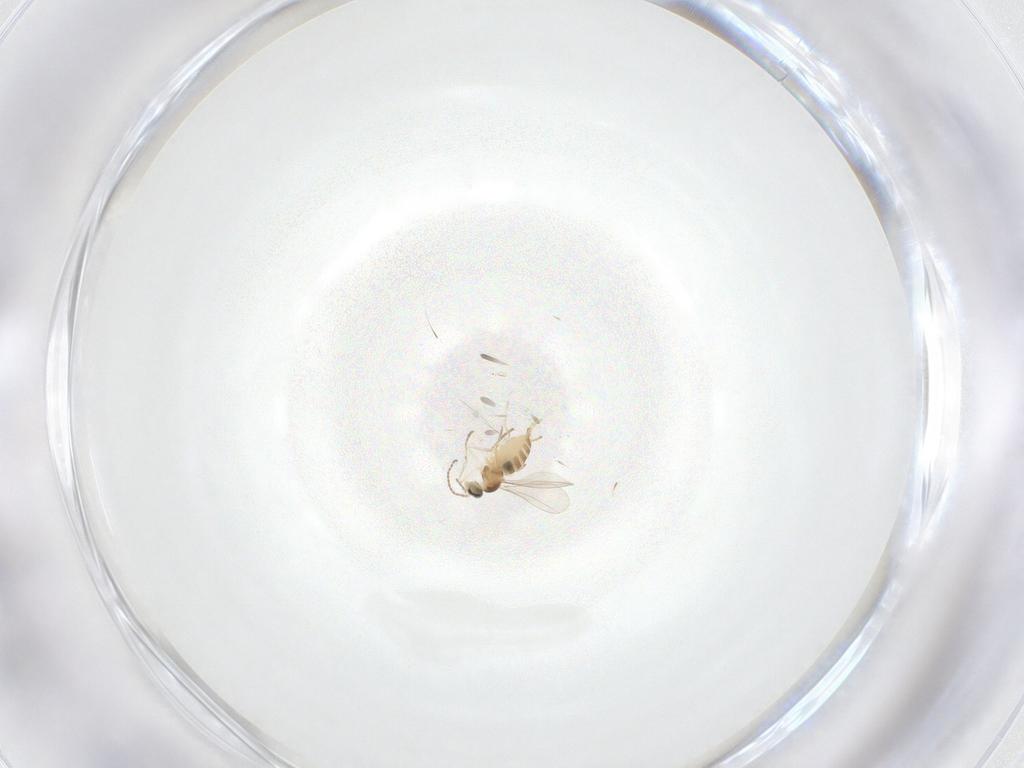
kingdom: Animalia
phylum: Arthropoda
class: Insecta
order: Diptera
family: Cecidomyiidae
